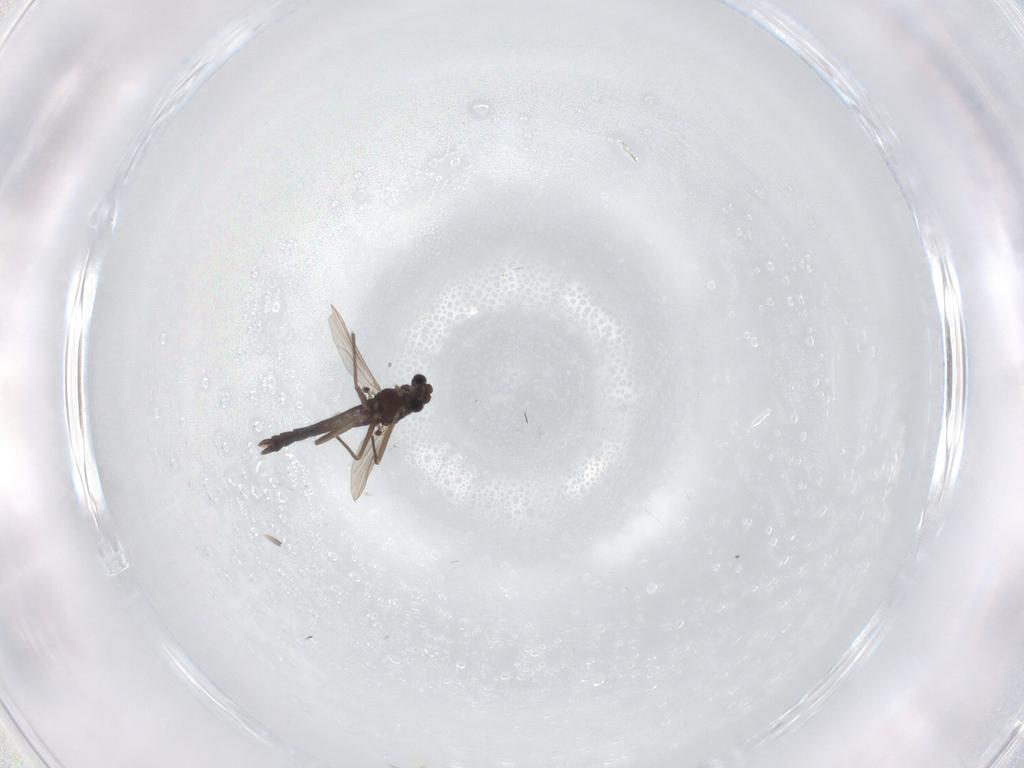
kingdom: Animalia
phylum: Arthropoda
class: Insecta
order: Diptera
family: Chironomidae
